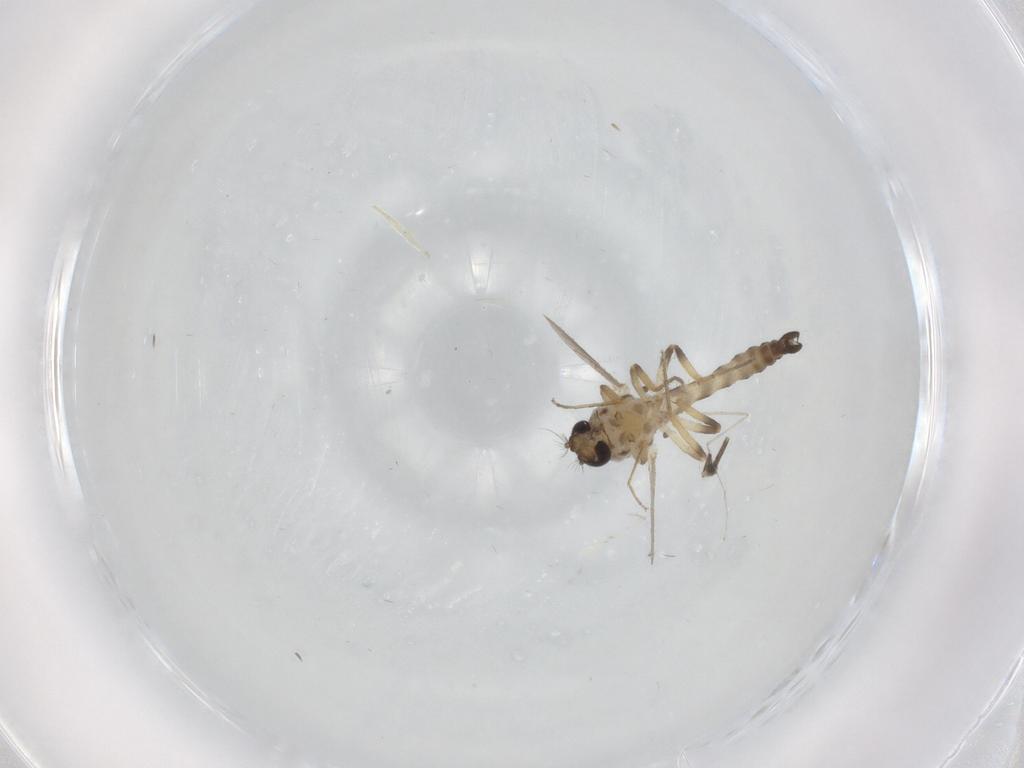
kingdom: Animalia
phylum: Arthropoda
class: Insecta
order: Diptera
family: Ceratopogonidae
